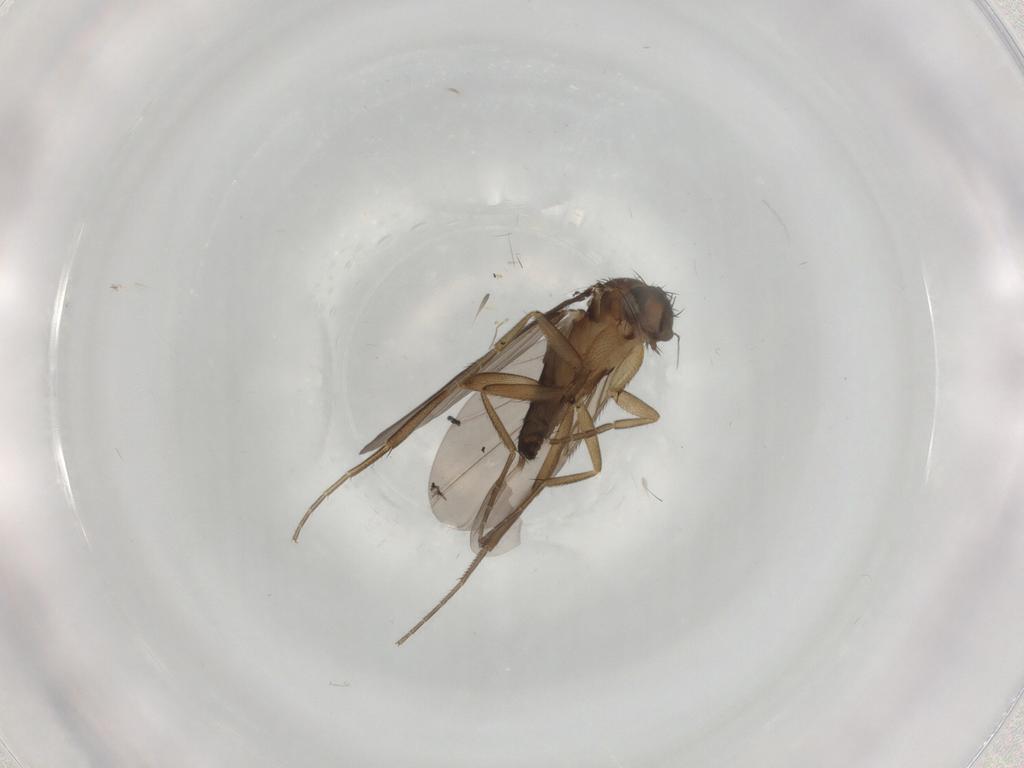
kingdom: Animalia
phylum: Arthropoda
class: Insecta
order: Diptera
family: Phoridae
